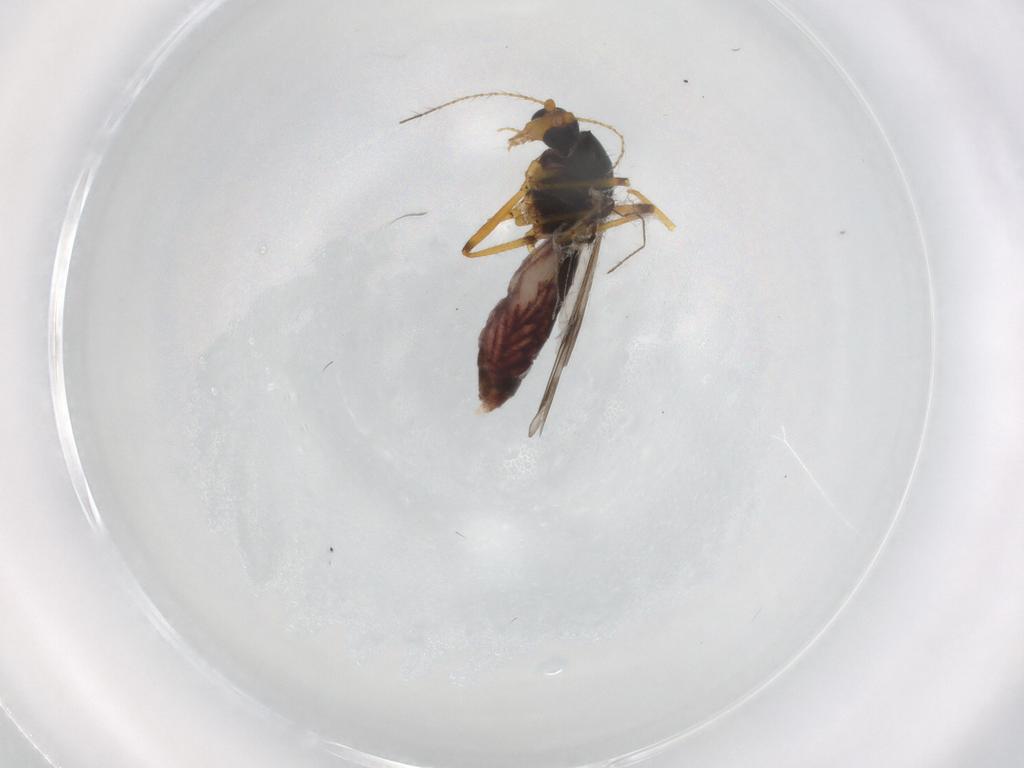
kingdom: Animalia
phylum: Arthropoda
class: Insecta
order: Diptera
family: Ceratopogonidae
